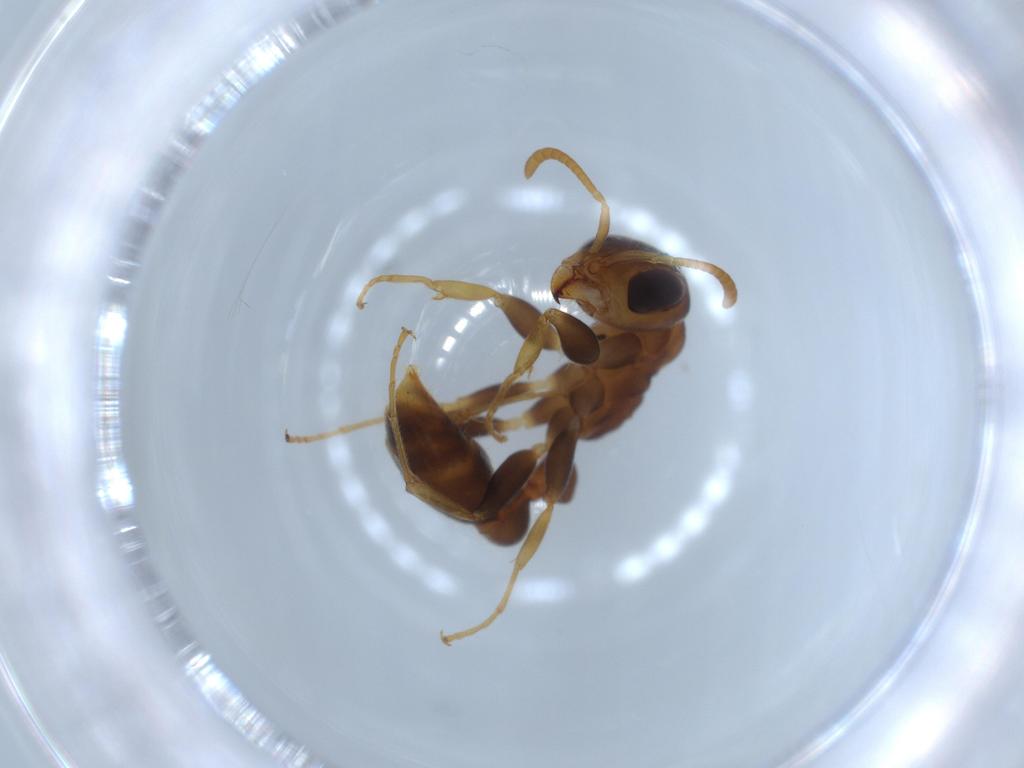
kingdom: Animalia
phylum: Arthropoda
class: Insecta
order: Hymenoptera
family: Formicidae
